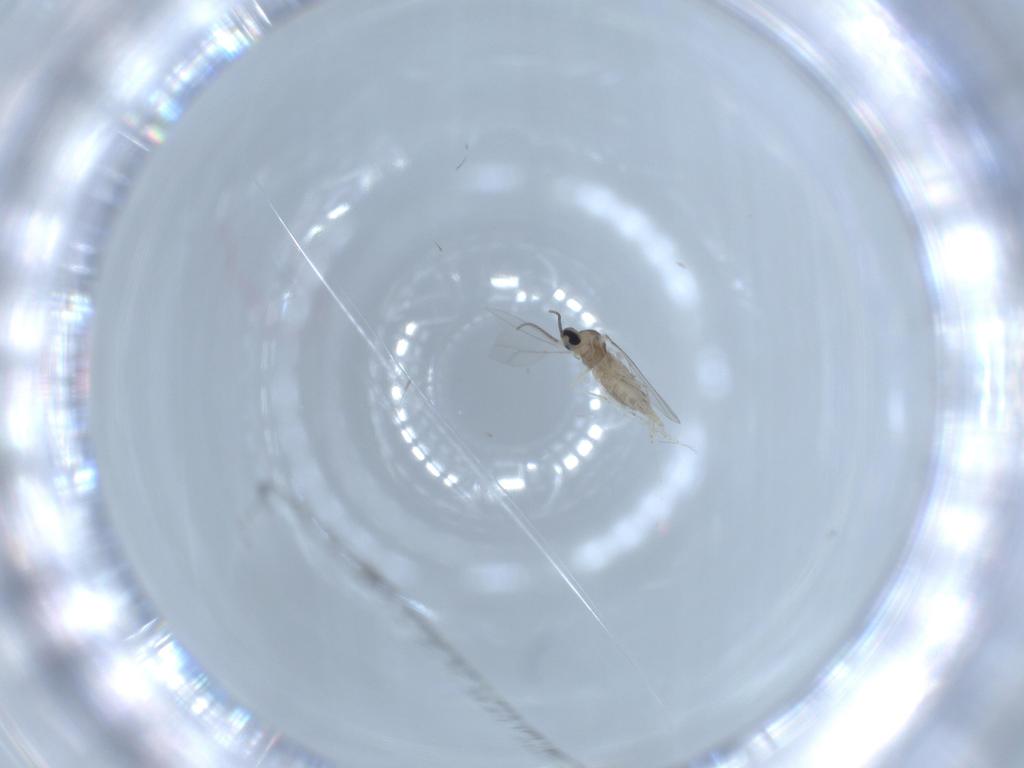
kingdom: Animalia
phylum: Arthropoda
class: Insecta
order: Diptera
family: Cecidomyiidae
